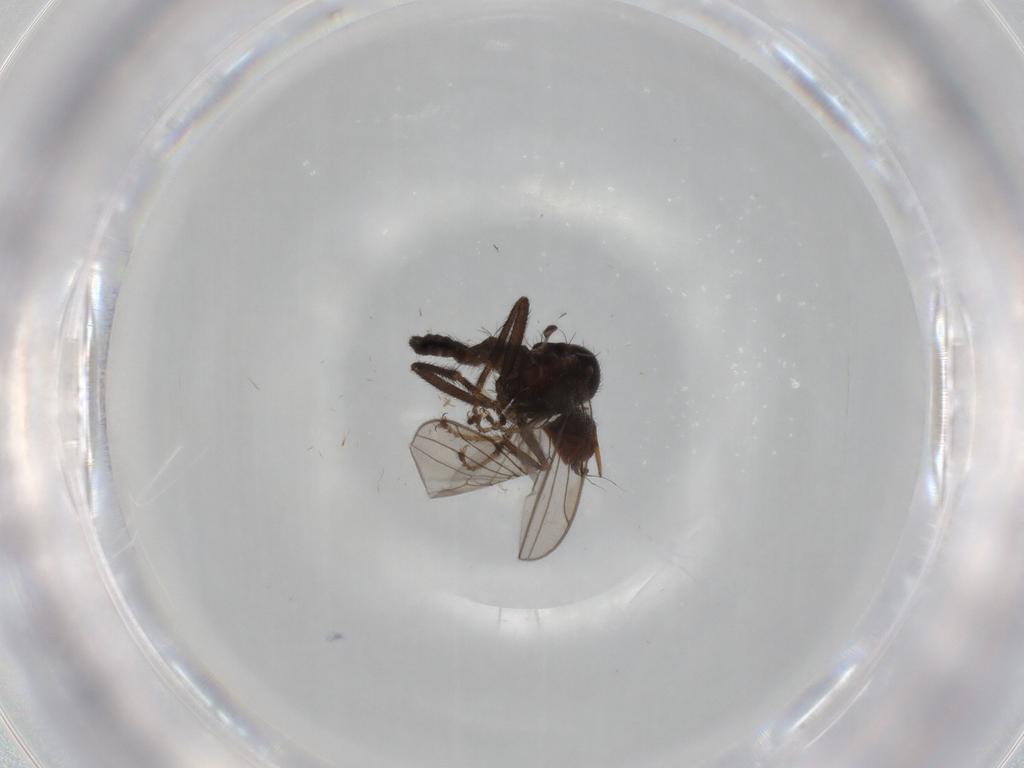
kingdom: Animalia
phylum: Arthropoda
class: Insecta
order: Diptera
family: Hybotidae
